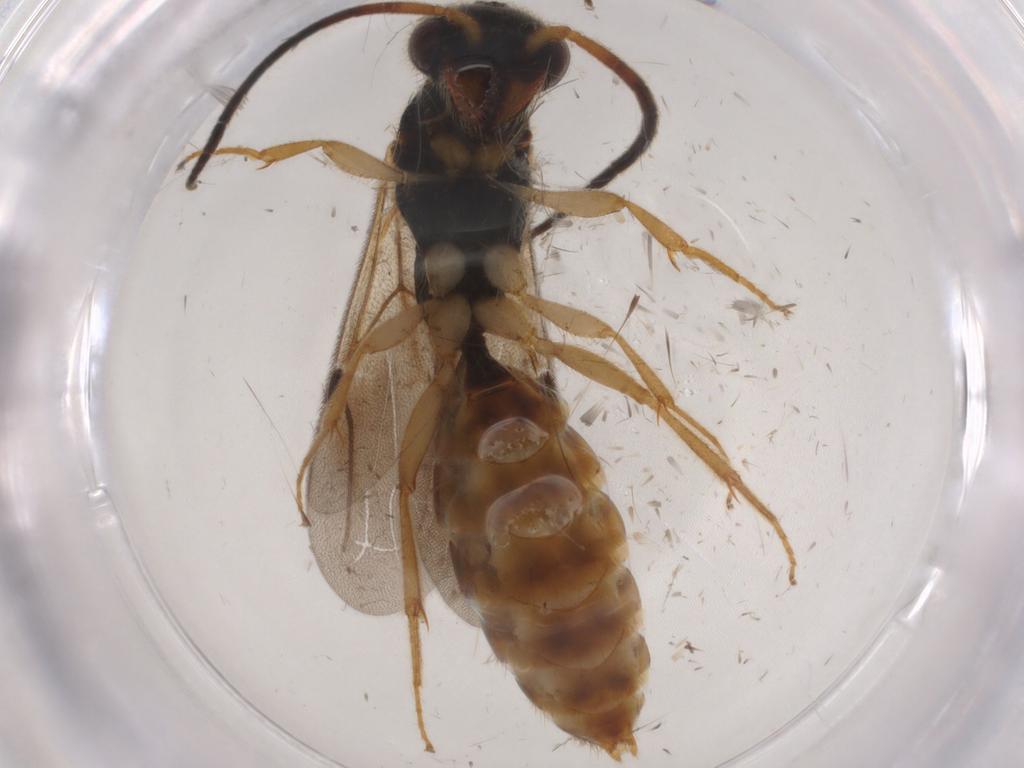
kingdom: Animalia
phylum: Arthropoda
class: Insecta
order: Hymenoptera
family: Bethylidae
